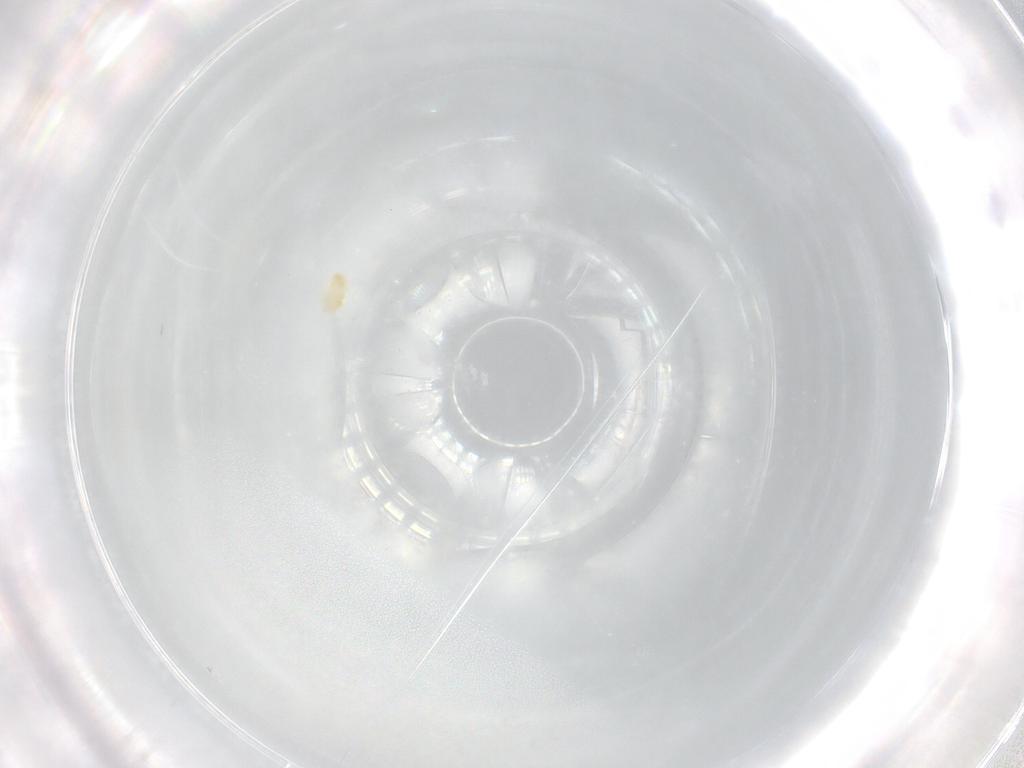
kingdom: Animalia
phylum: Arthropoda
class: Arachnida
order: Trombidiformes
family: Eupodidae
